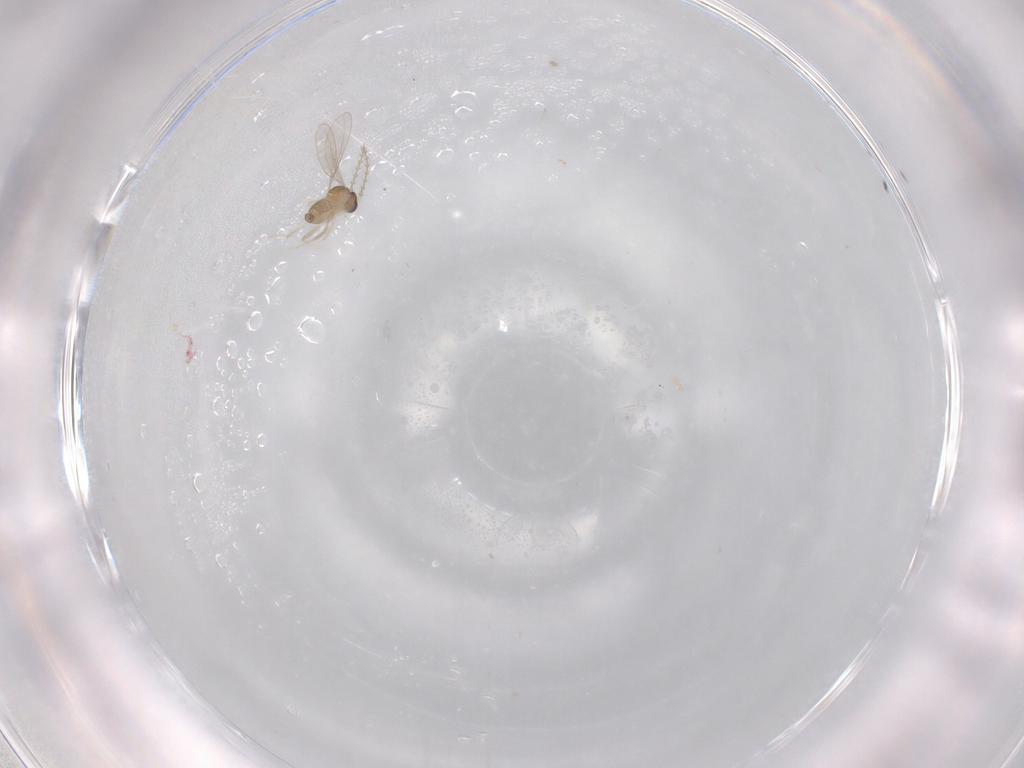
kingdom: Animalia
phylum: Arthropoda
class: Insecta
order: Diptera
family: Cecidomyiidae
